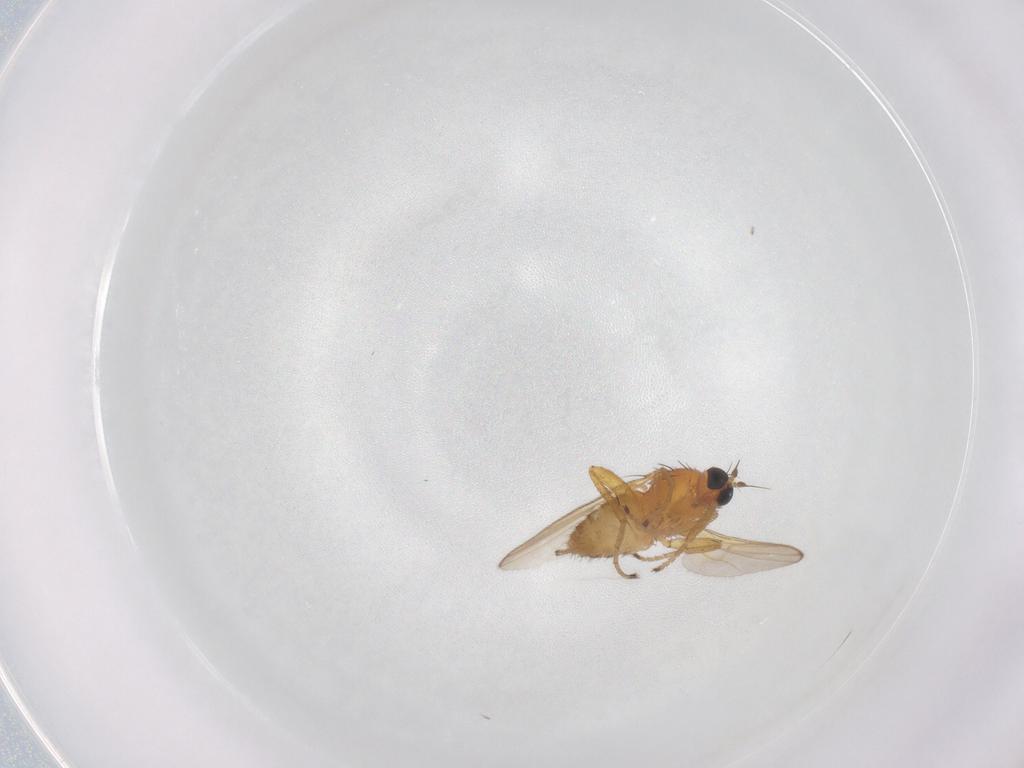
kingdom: Animalia
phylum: Arthropoda
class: Insecta
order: Diptera
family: Hybotidae
